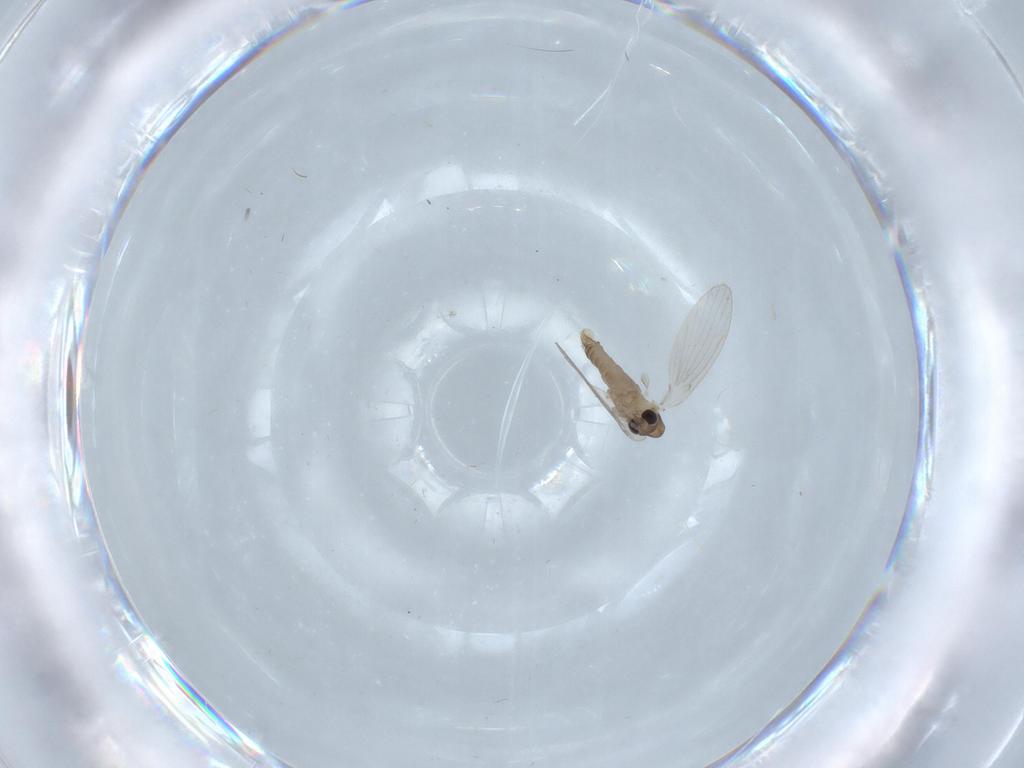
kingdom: Animalia
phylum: Arthropoda
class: Insecta
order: Diptera
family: Psychodidae
